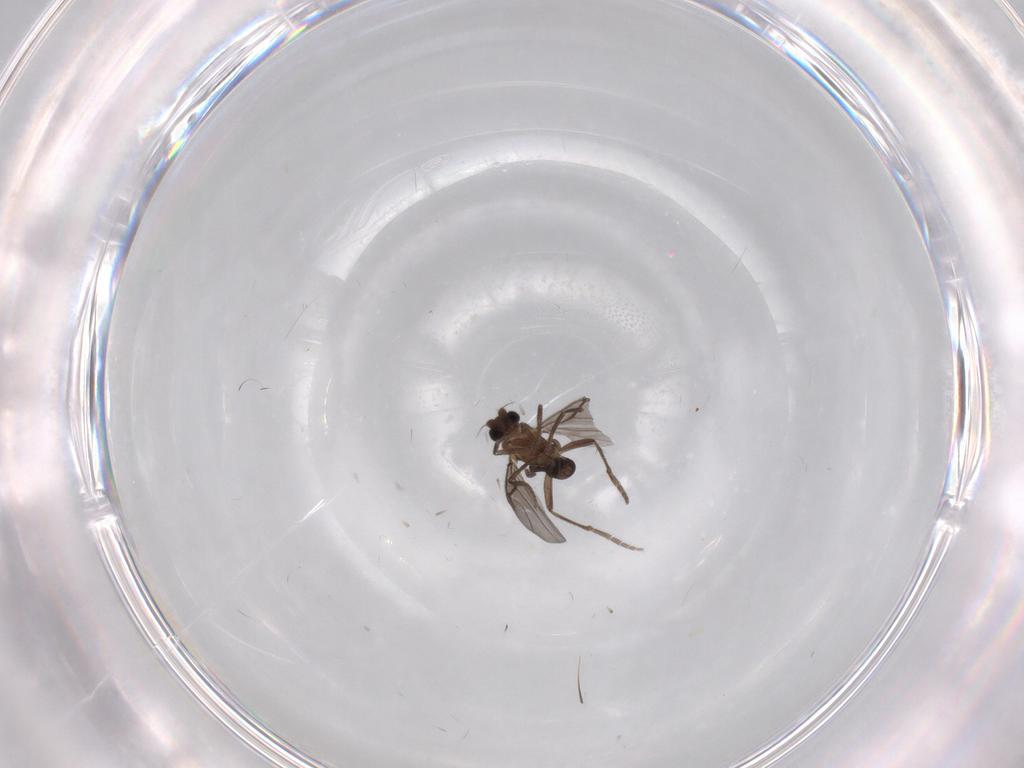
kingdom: Animalia
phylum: Arthropoda
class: Insecta
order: Diptera
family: Phoridae
